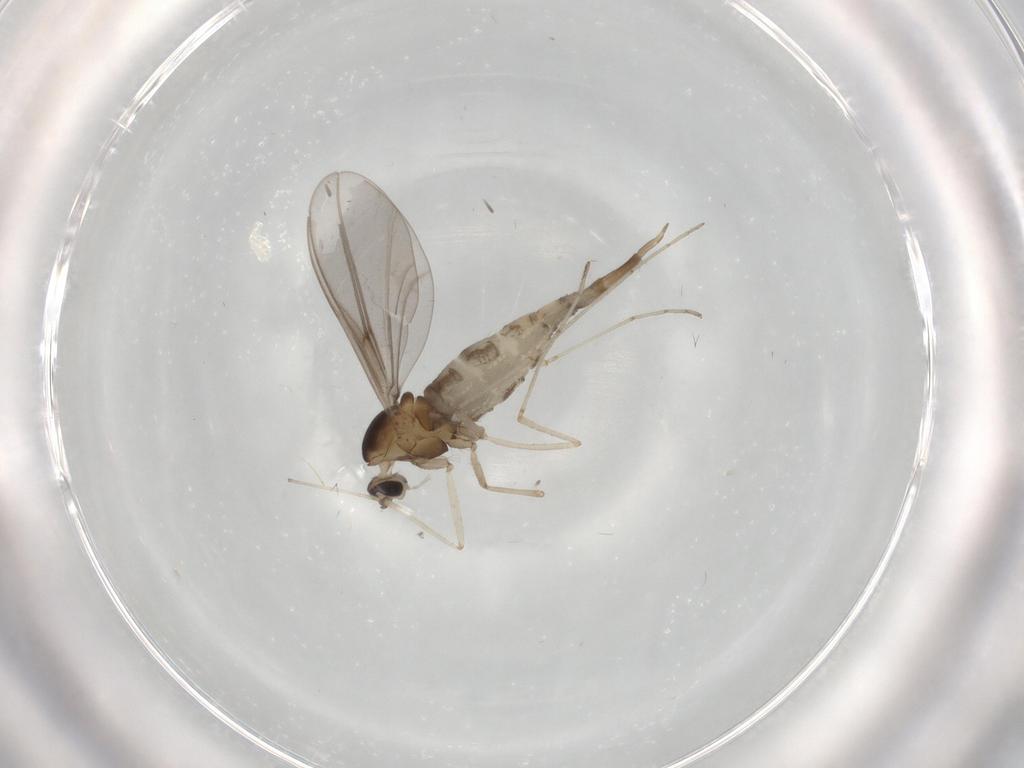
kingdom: Animalia
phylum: Arthropoda
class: Insecta
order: Diptera
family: Cecidomyiidae
